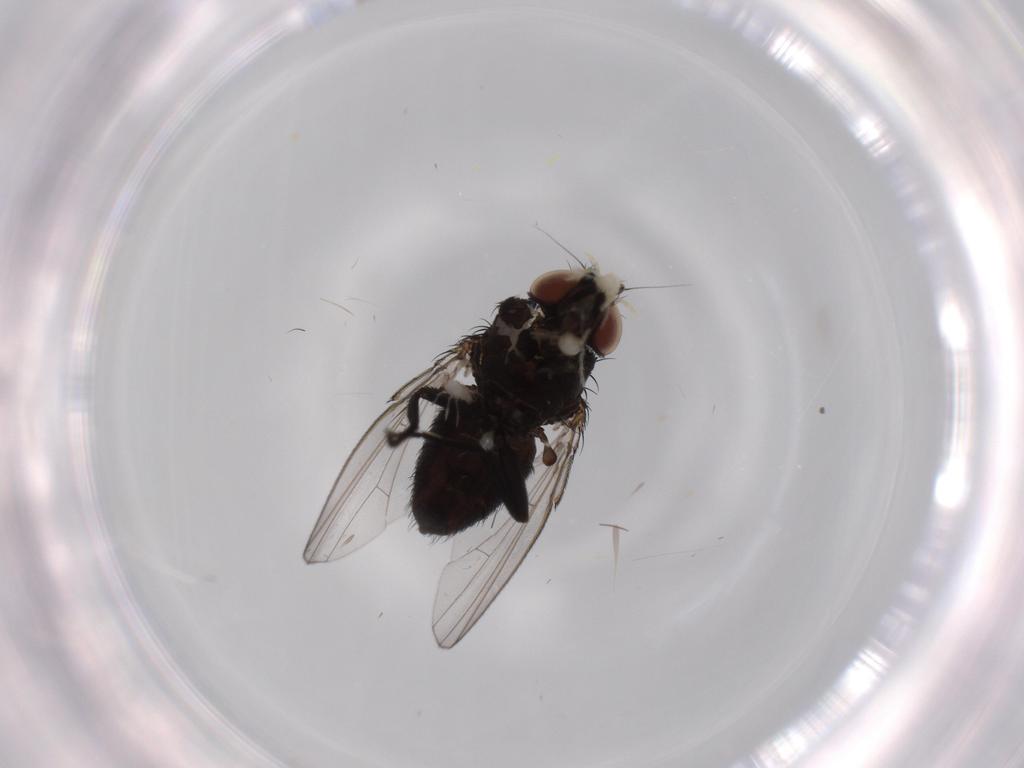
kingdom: Animalia
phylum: Arthropoda
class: Insecta
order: Diptera
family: Milichiidae
